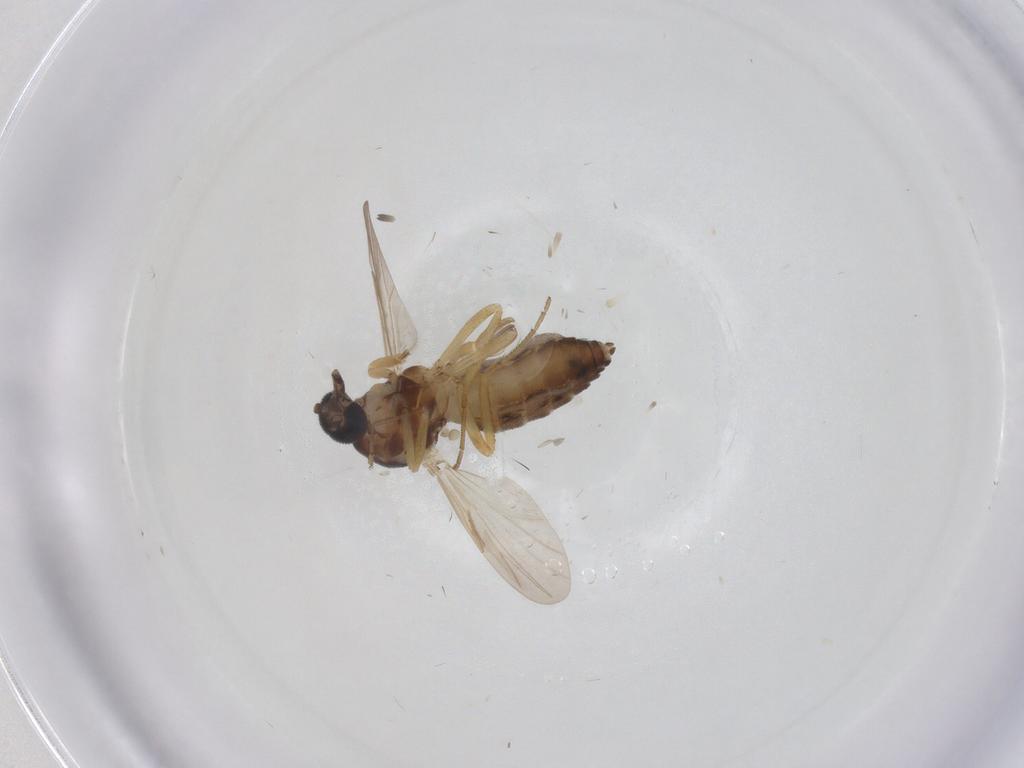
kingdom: Animalia
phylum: Arthropoda
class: Insecta
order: Diptera
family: Ceratopogonidae
